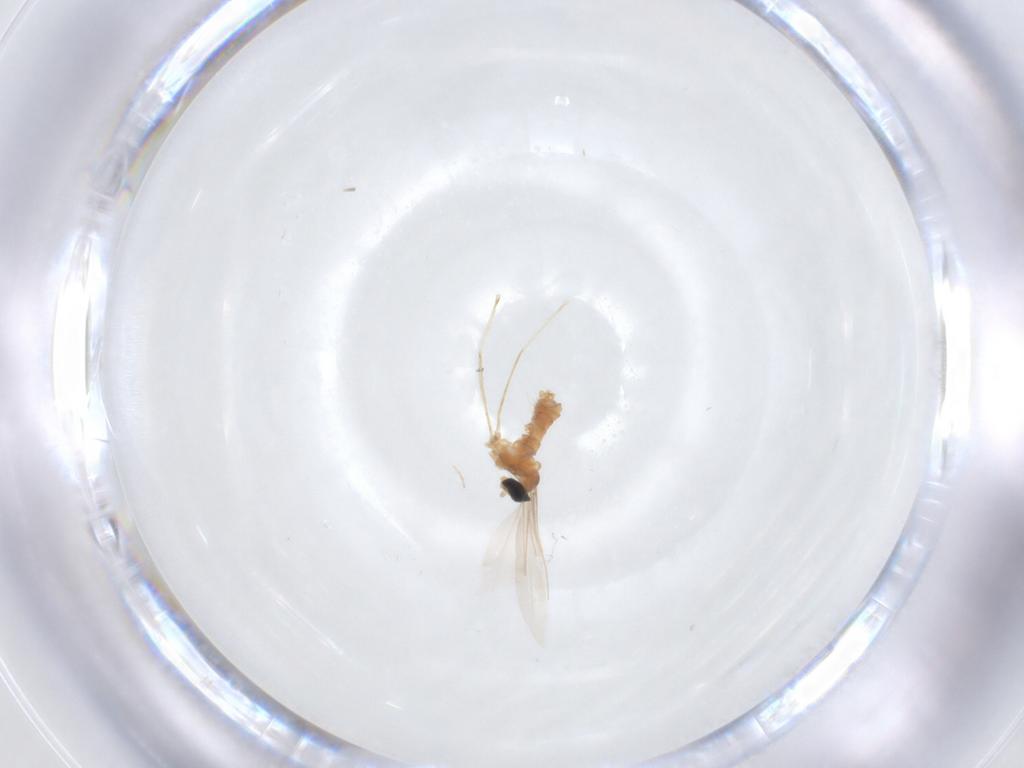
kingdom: Animalia
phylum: Arthropoda
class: Insecta
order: Diptera
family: Cecidomyiidae
